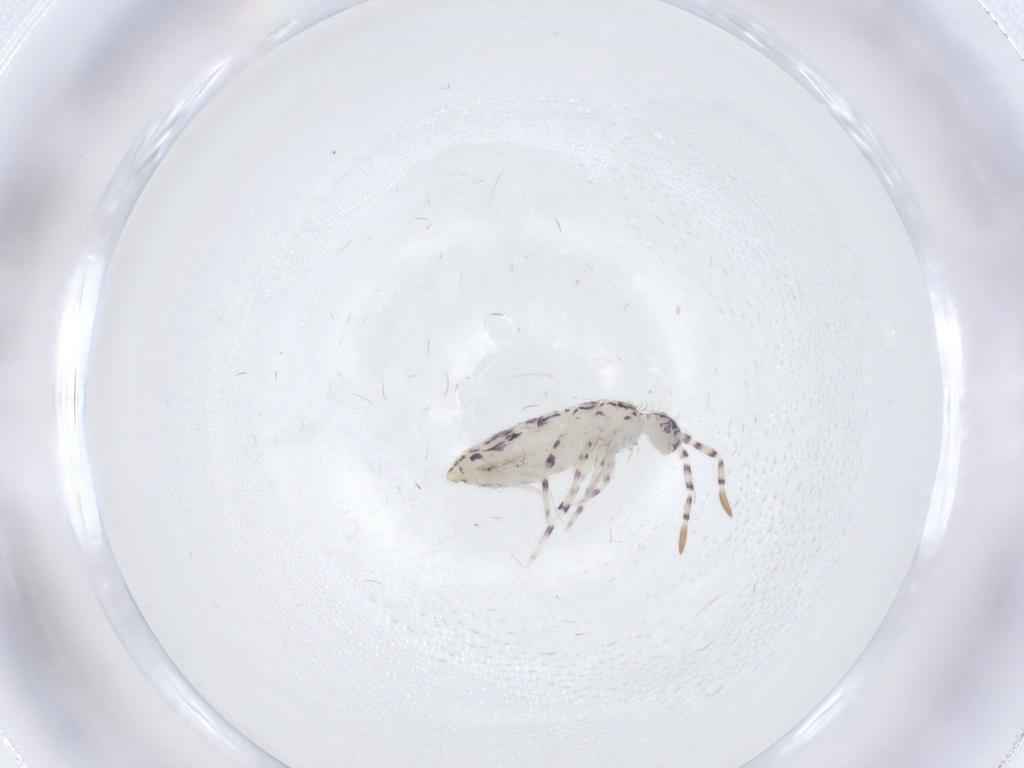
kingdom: Animalia
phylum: Arthropoda
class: Collembola
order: Entomobryomorpha
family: Entomobryidae
